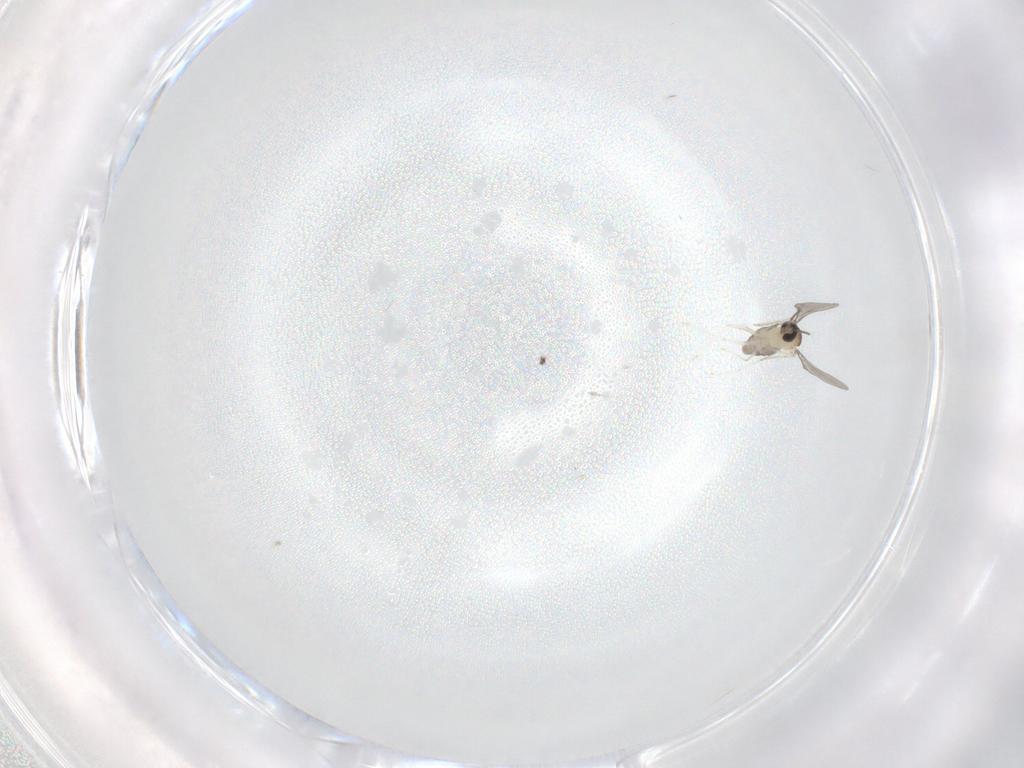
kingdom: Animalia
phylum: Arthropoda
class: Insecta
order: Diptera
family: Cecidomyiidae
